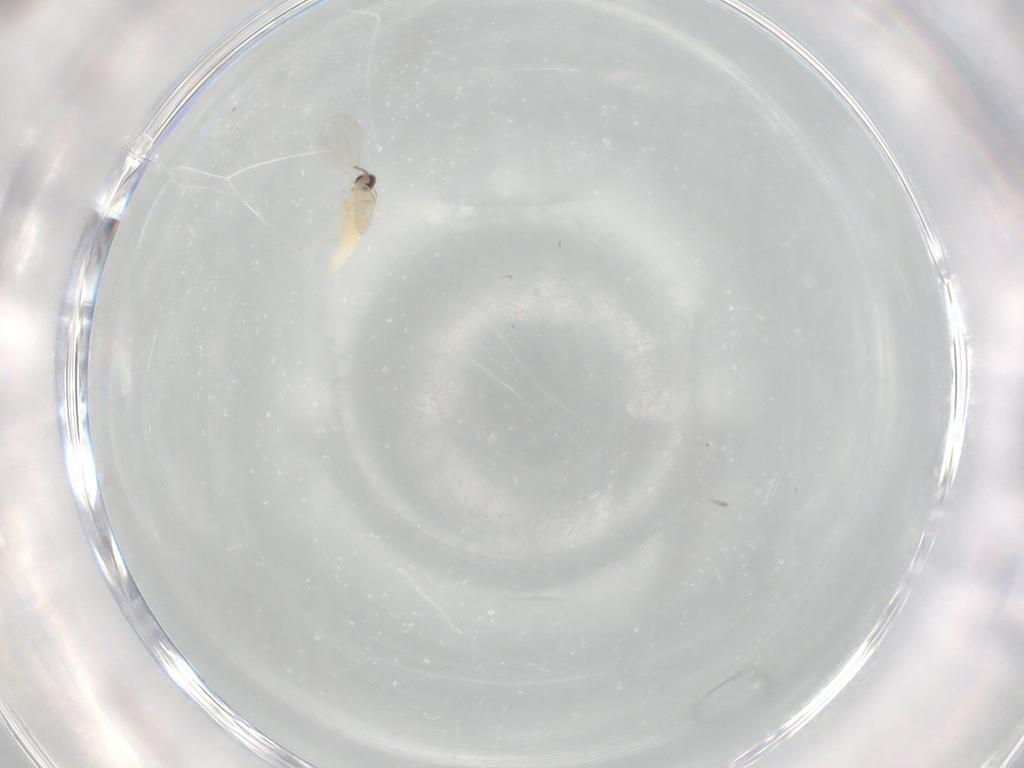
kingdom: Animalia
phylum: Arthropoda
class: Insecta
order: Diptera
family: Cecidomyiidae
